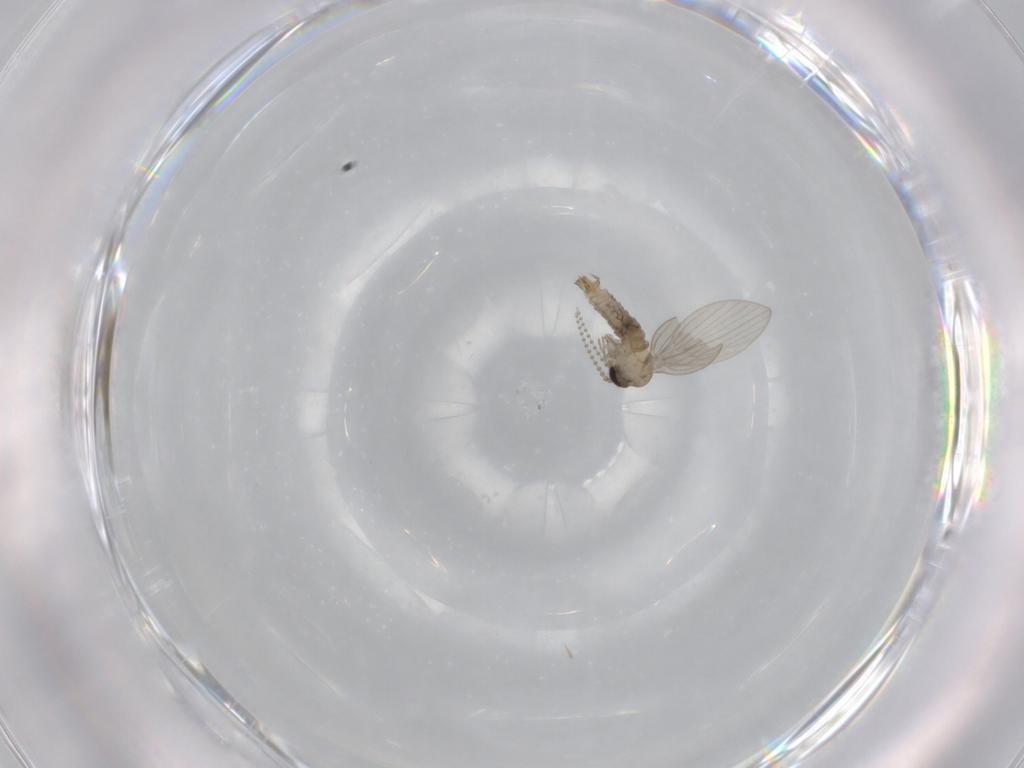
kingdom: Animalia
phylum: Arthropoda
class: Insecta
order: Diptera
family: Psychodidae
